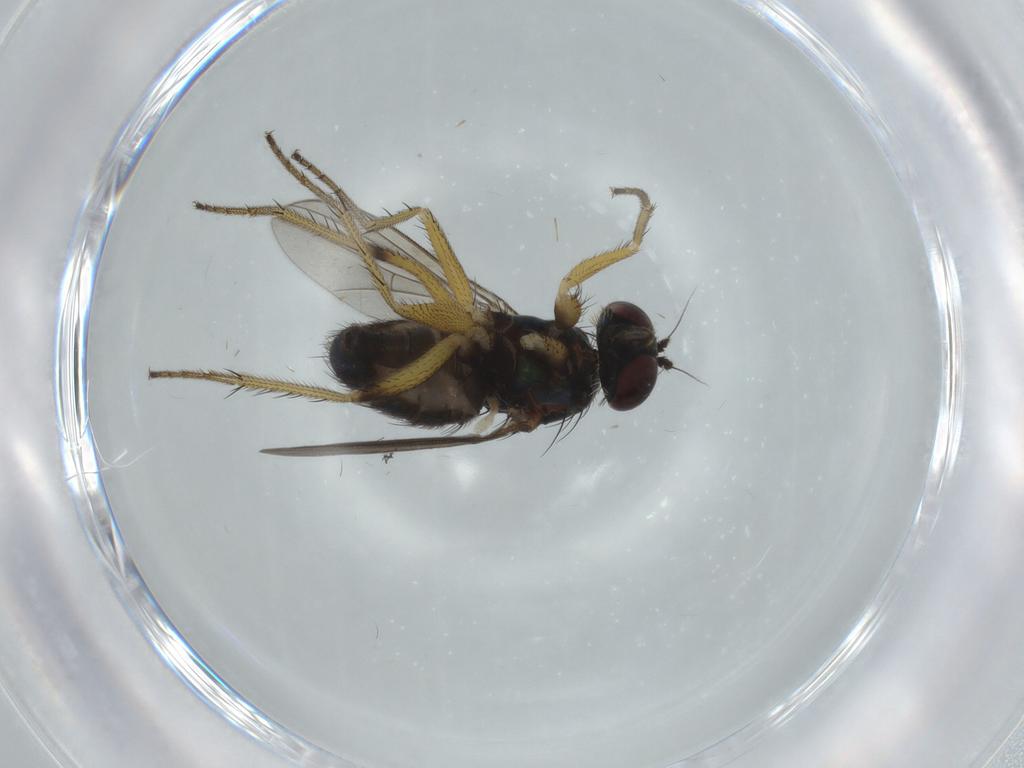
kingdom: Animalia
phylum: Arthropoda
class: Insecta
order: Diptera
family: Dolichopodidae
